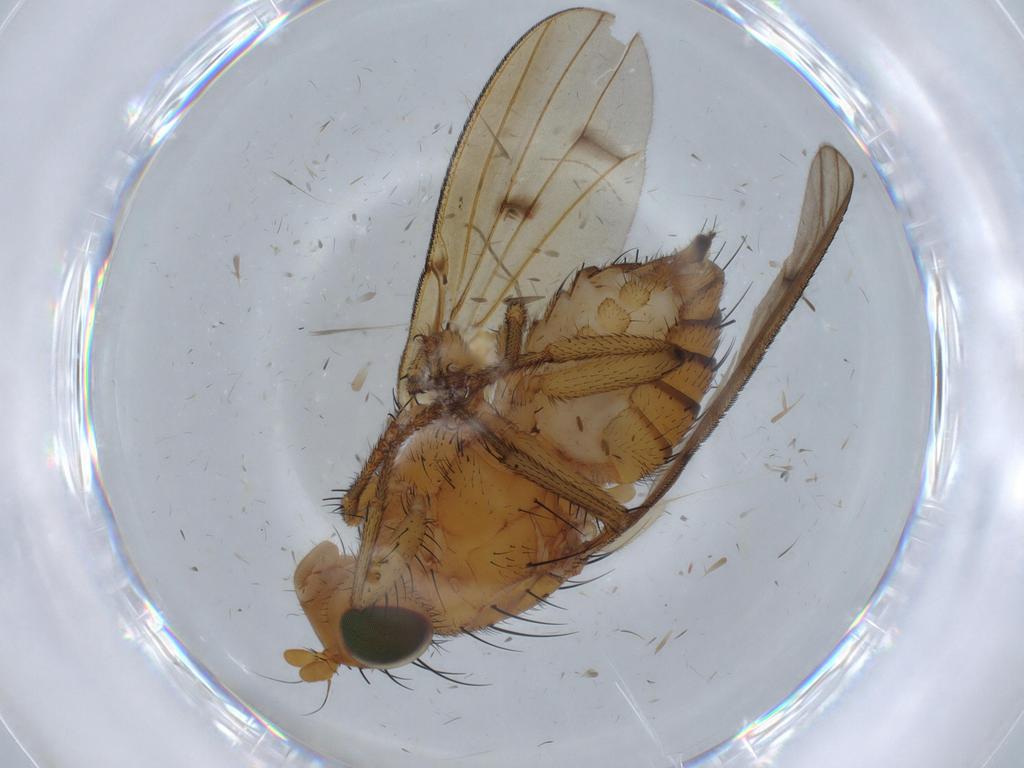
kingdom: Animalia
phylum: Arthropoda
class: Insecta
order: Diptera
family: Sciaridae
